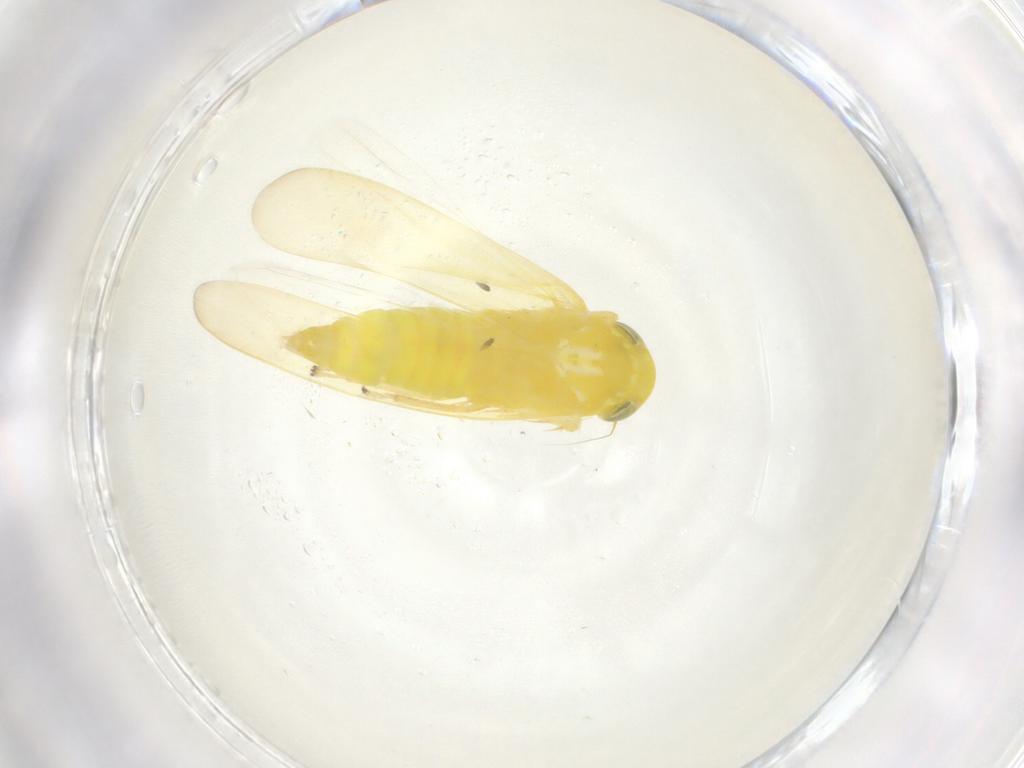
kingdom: Animalia
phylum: Arthropoda
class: Insecta
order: Hemiptera
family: Cicadellidae
